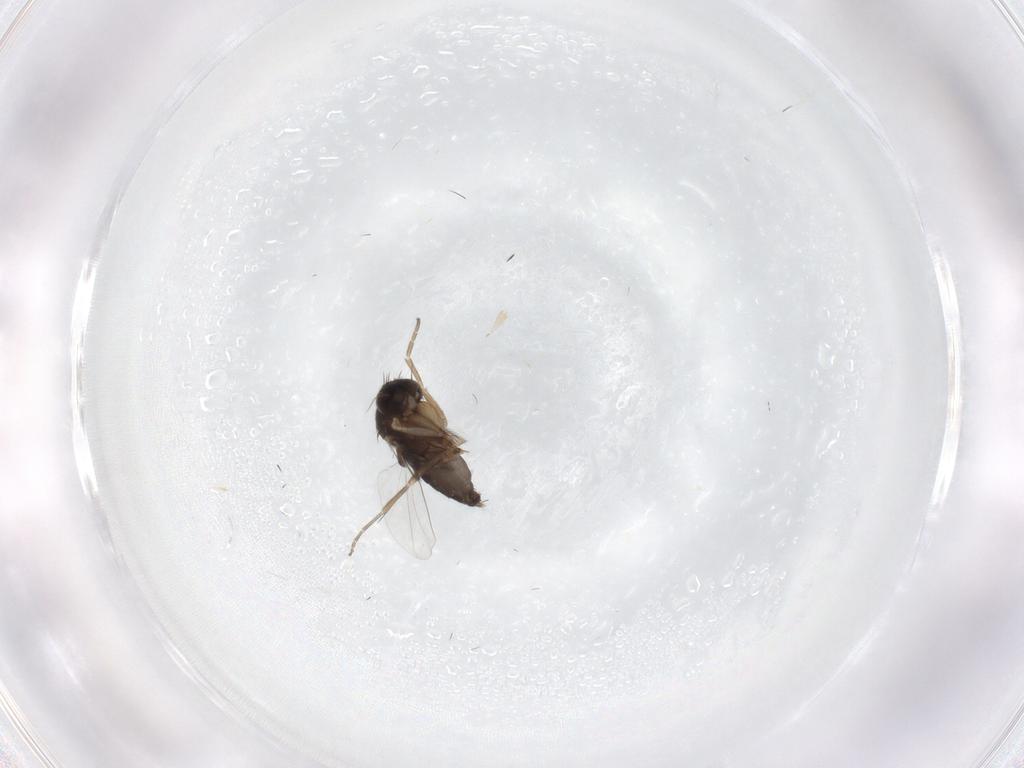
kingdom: Animalia
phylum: Arthropoda
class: Insecta
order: Diptera
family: Phoridae
